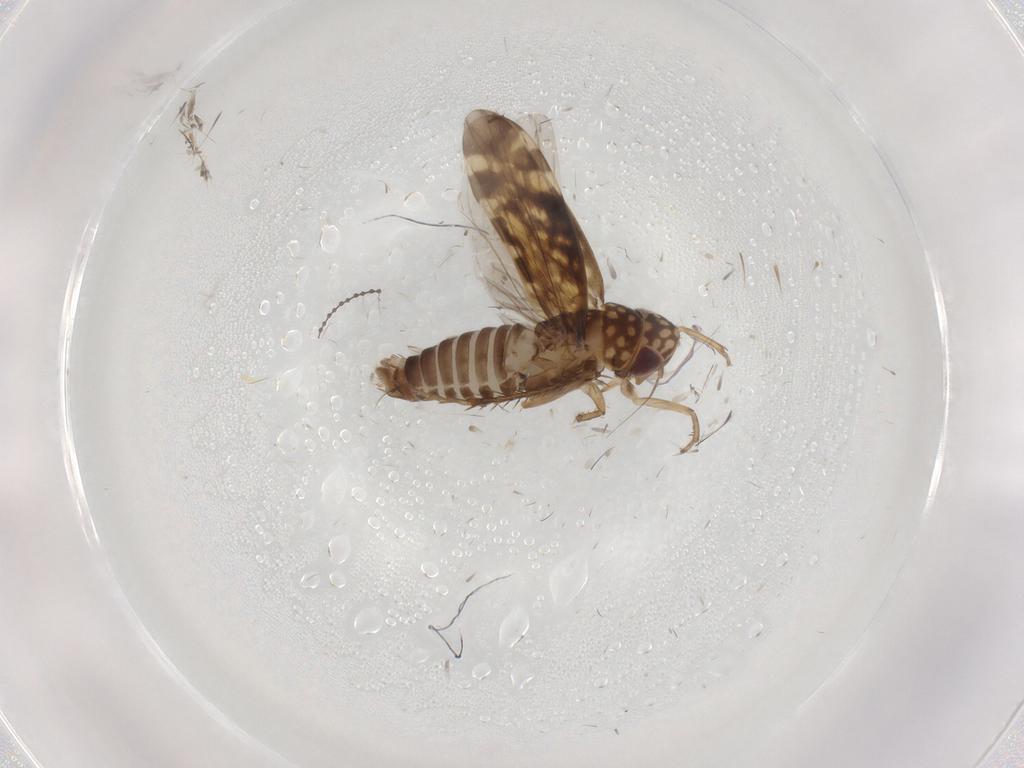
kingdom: Animalia
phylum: Arthropoda
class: Insecta
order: Hemiptera
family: Cicadellidae
